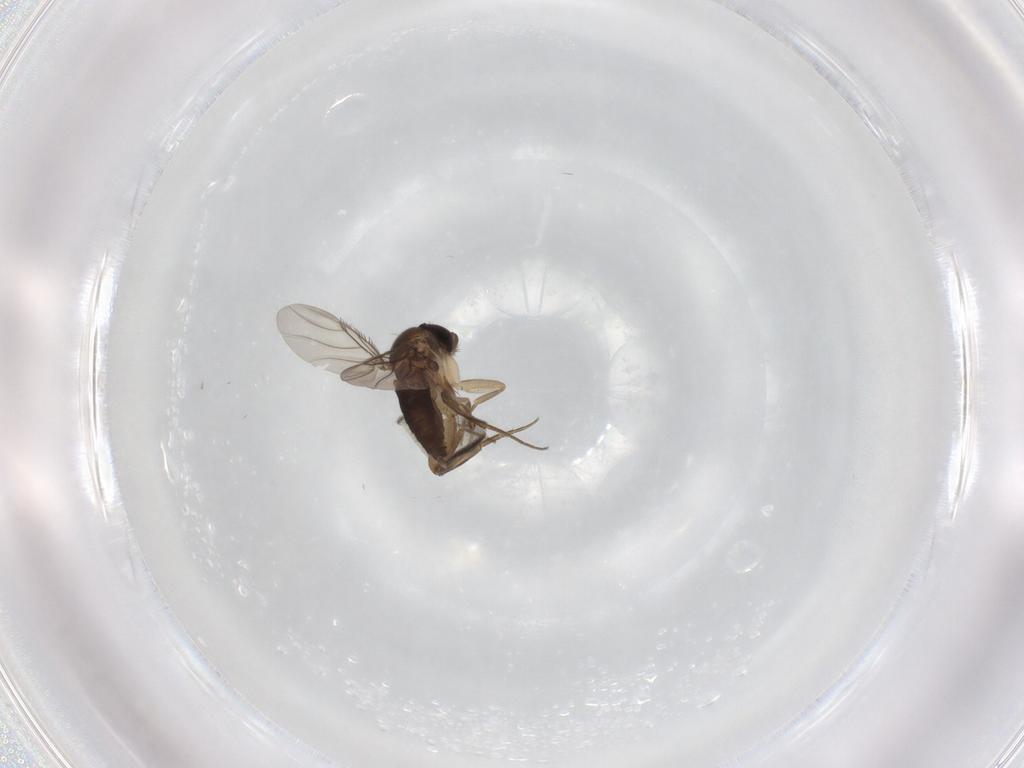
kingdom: Animalia
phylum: Arthropoda
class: Insecta
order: Diptera
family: Phoridae
